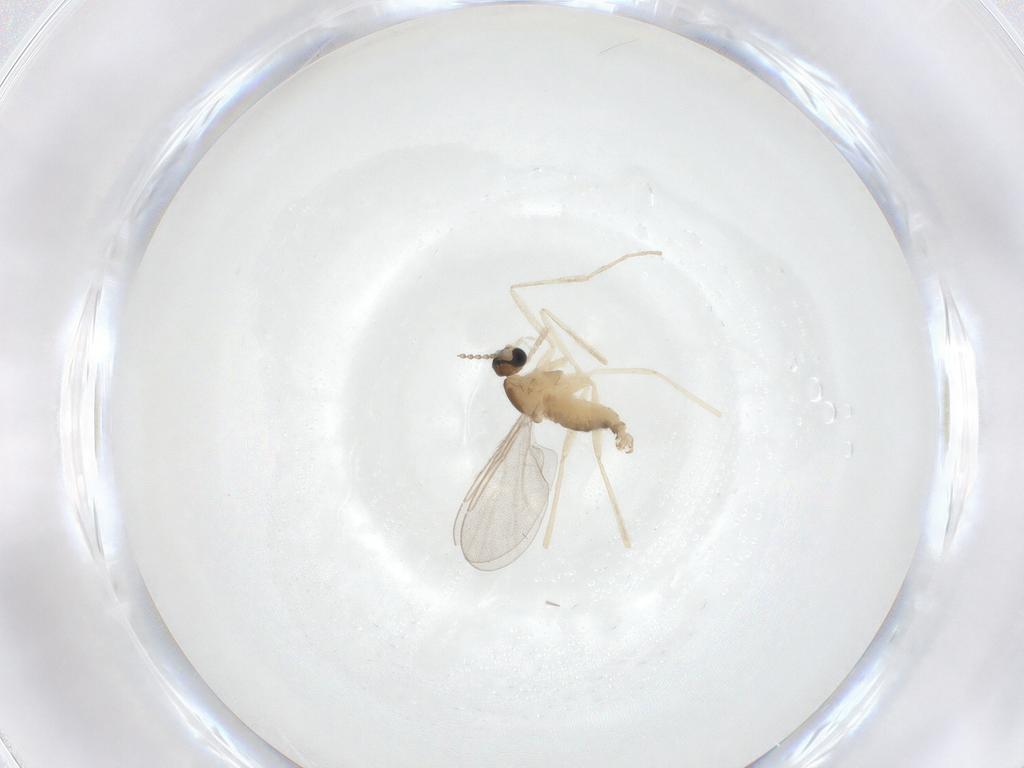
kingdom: Animalia
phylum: Arthropoda
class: Insecta
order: Diptera
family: Cecidomyiidae
